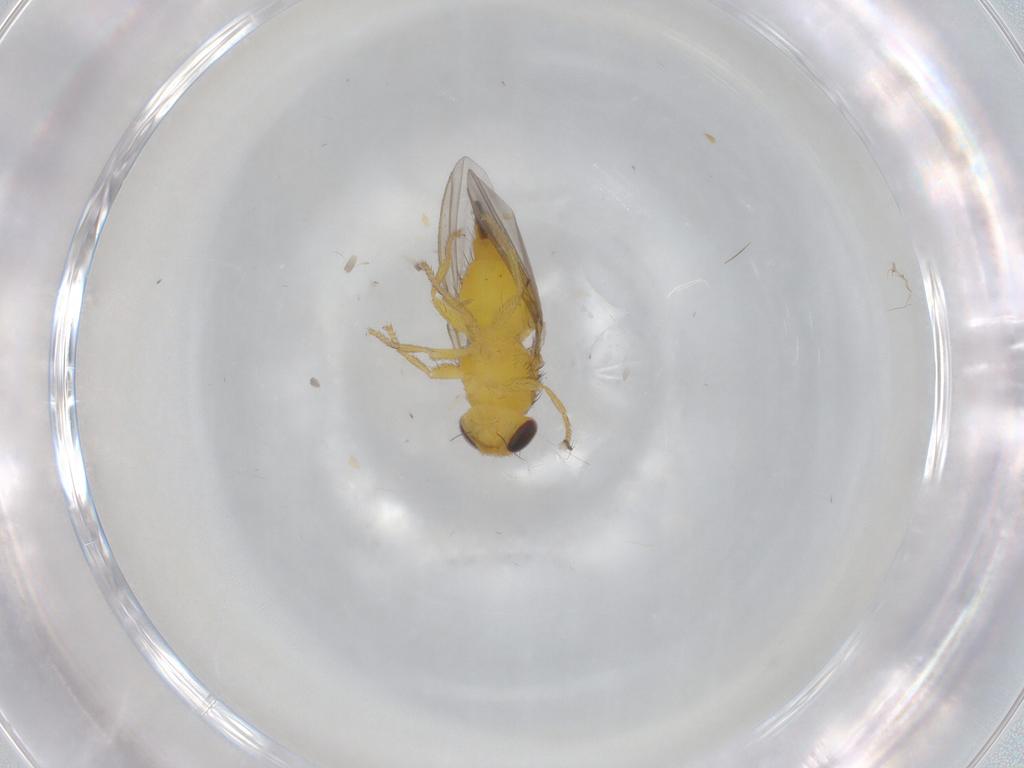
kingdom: Animalia
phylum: Arthropoda
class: Insecta
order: Diptera
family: Fergusoninidae
